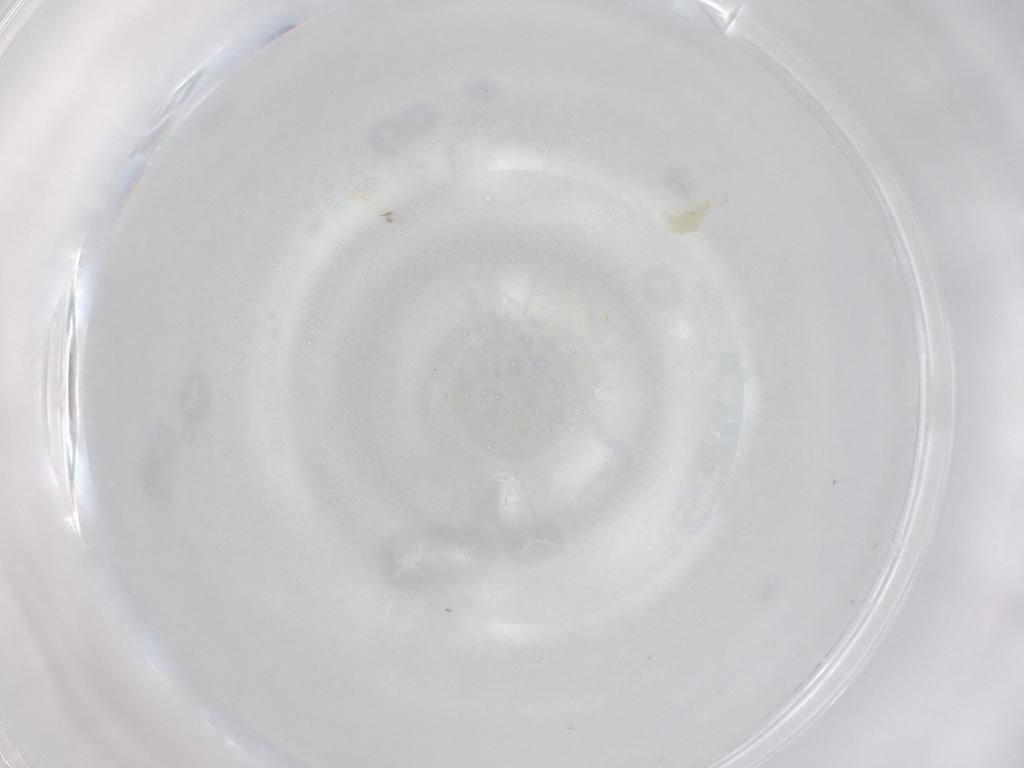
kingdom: Animalia
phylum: Arthropoda
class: Arachnida
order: Trombidiformes
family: Cunaxidae
